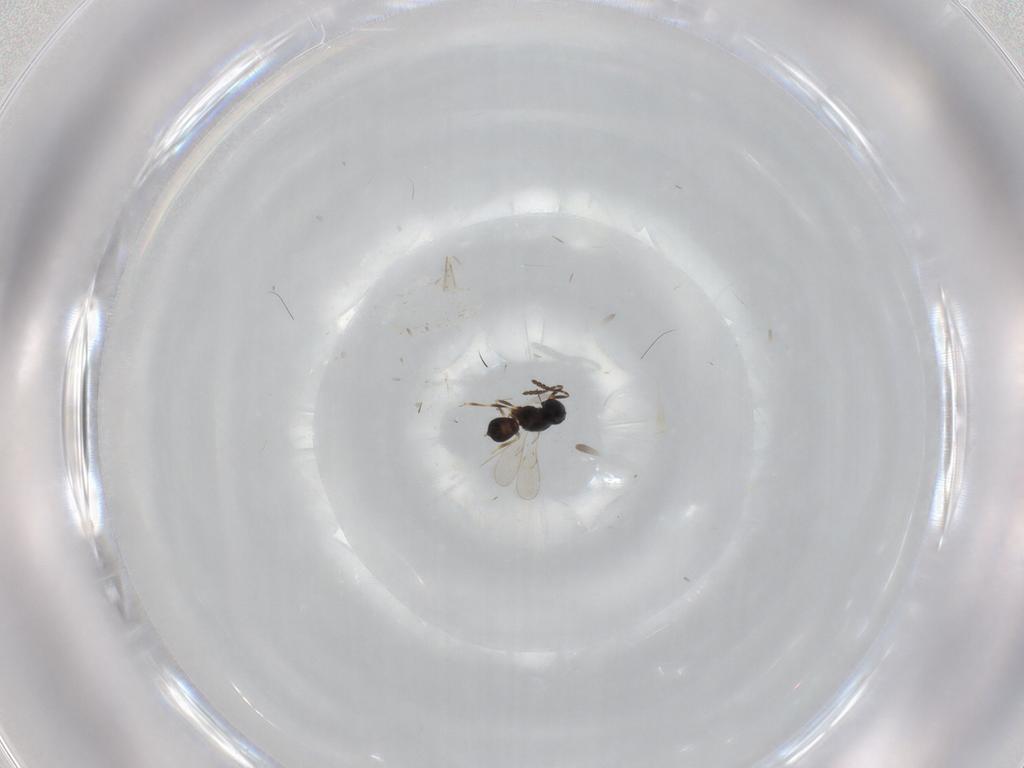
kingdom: Animalia
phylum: Arthropoda
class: Insecta
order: Hymenoptera
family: Scelionidae
